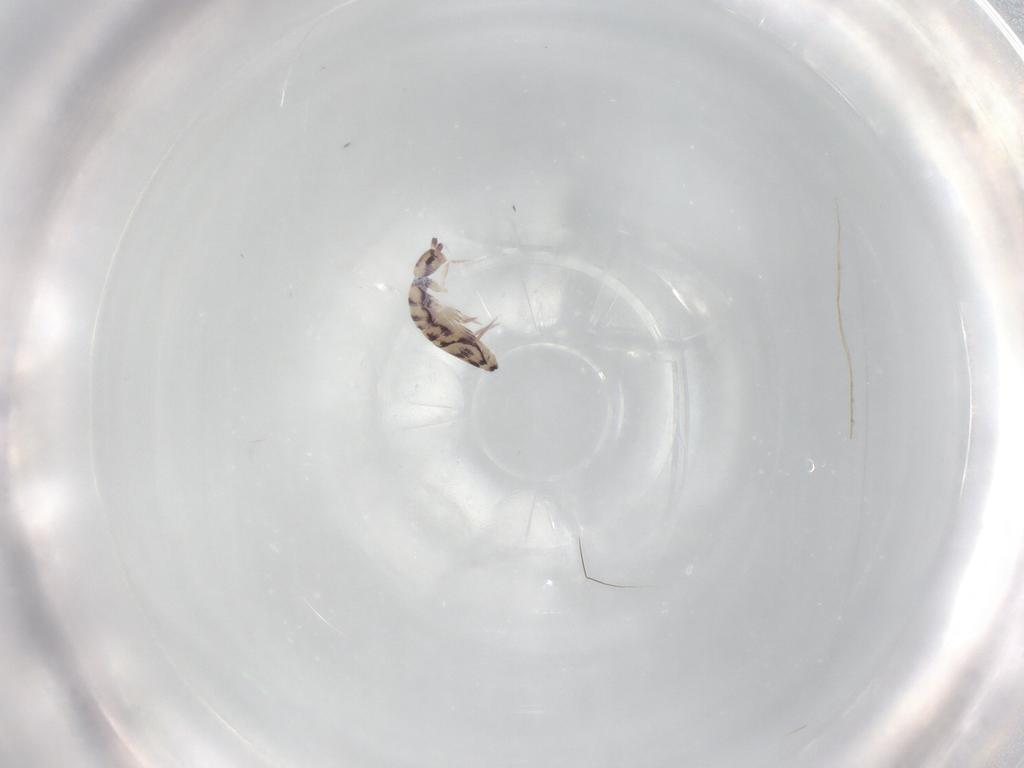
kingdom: Animalia
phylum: Arthropoda
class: Collembola
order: Entomobryomorpha
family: Entomobryidae
